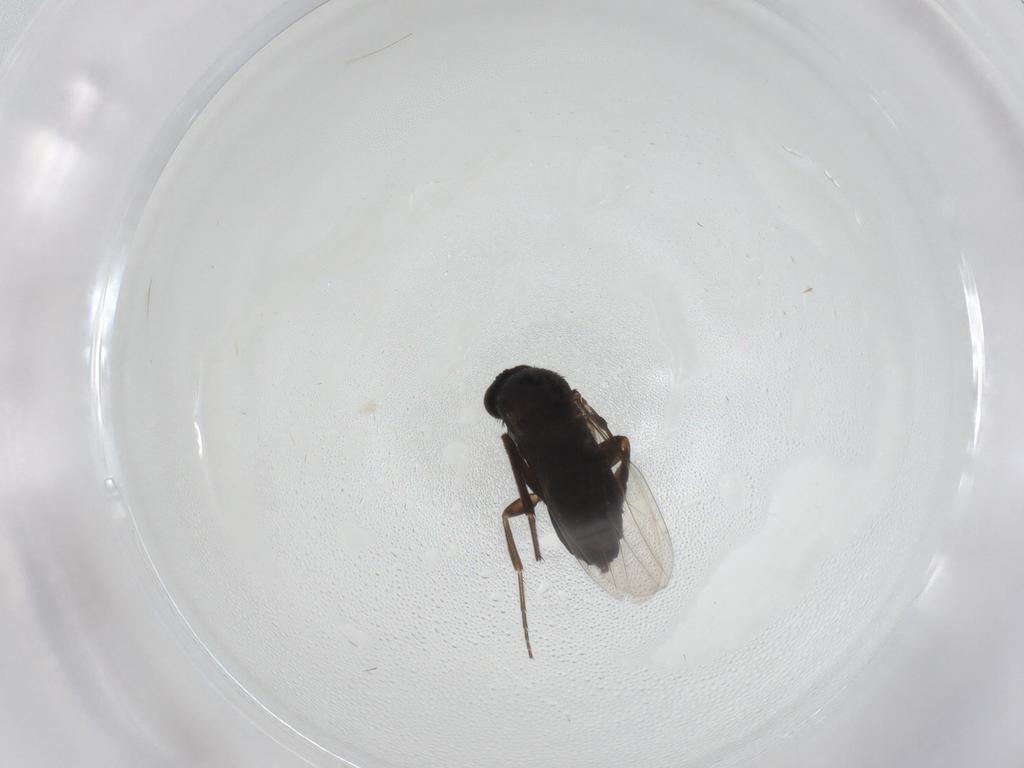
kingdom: Animalia
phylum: Arthropoda
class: Insecta
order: Diptera
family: Phoridae
